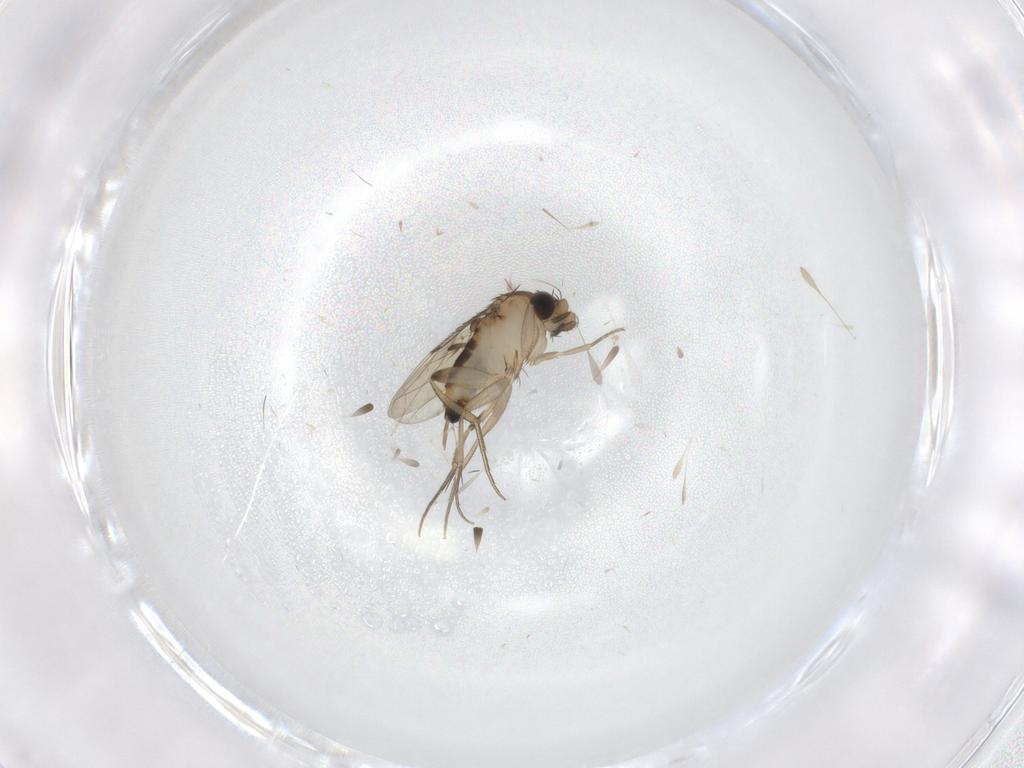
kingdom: Animalia
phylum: Arthropoda
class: Insecta
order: Diptera
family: Phoridae
